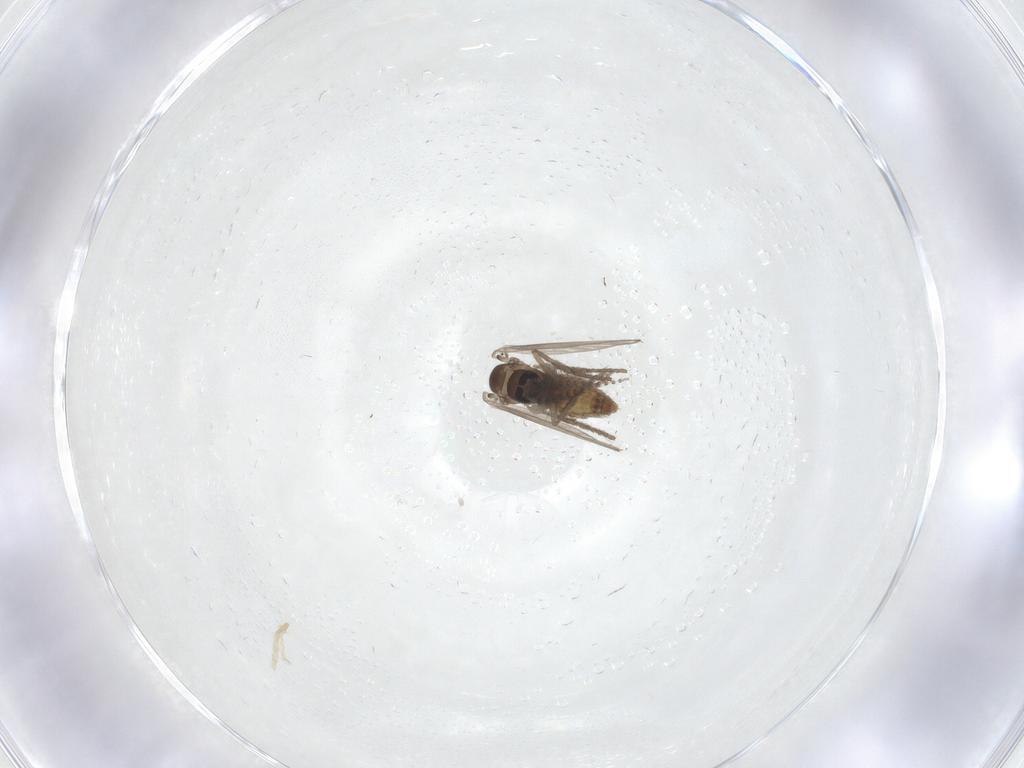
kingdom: Animalia
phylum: Arthropoda
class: Insecta
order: Diptera
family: Psychodidae
